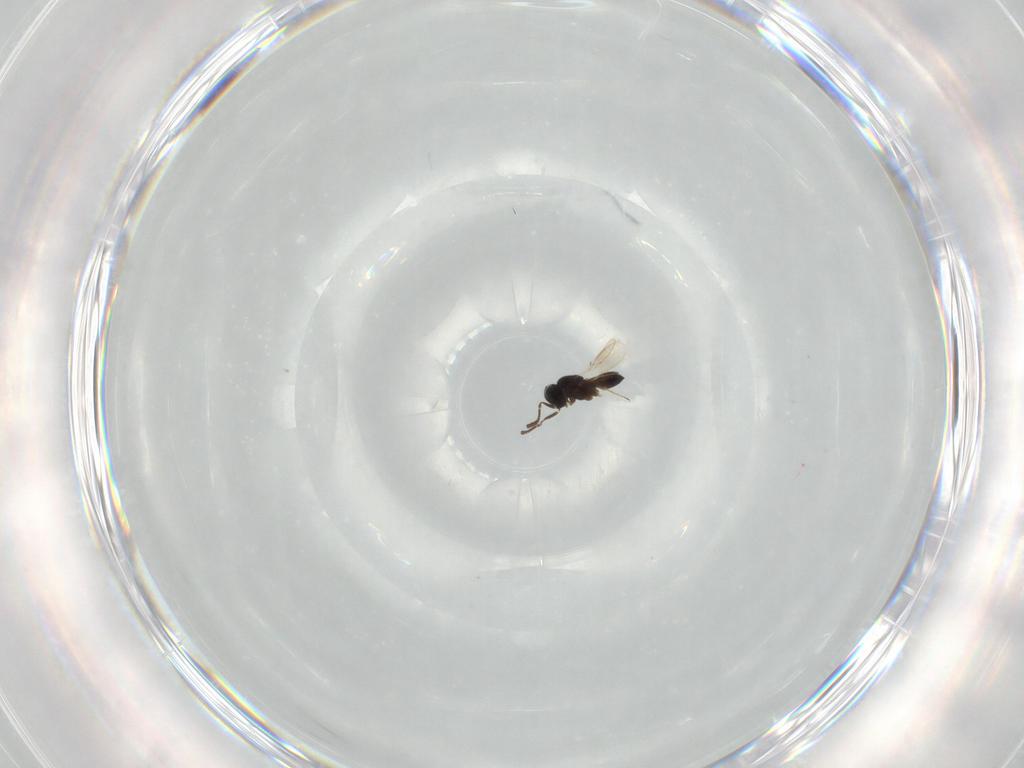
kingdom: Animalia
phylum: Arthropoda
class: Insecta
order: Hymenoptera
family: Scelionidae
